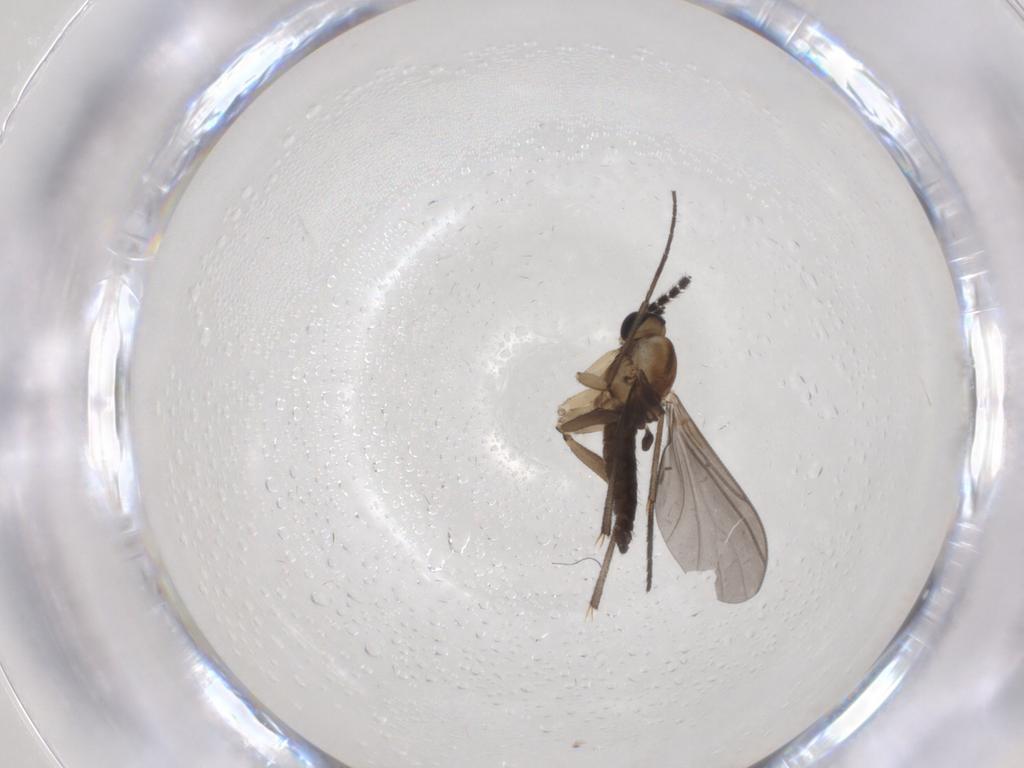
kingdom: Animalia
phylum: Arthropoda
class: Insecta
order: Diptera
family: Sciaridae
